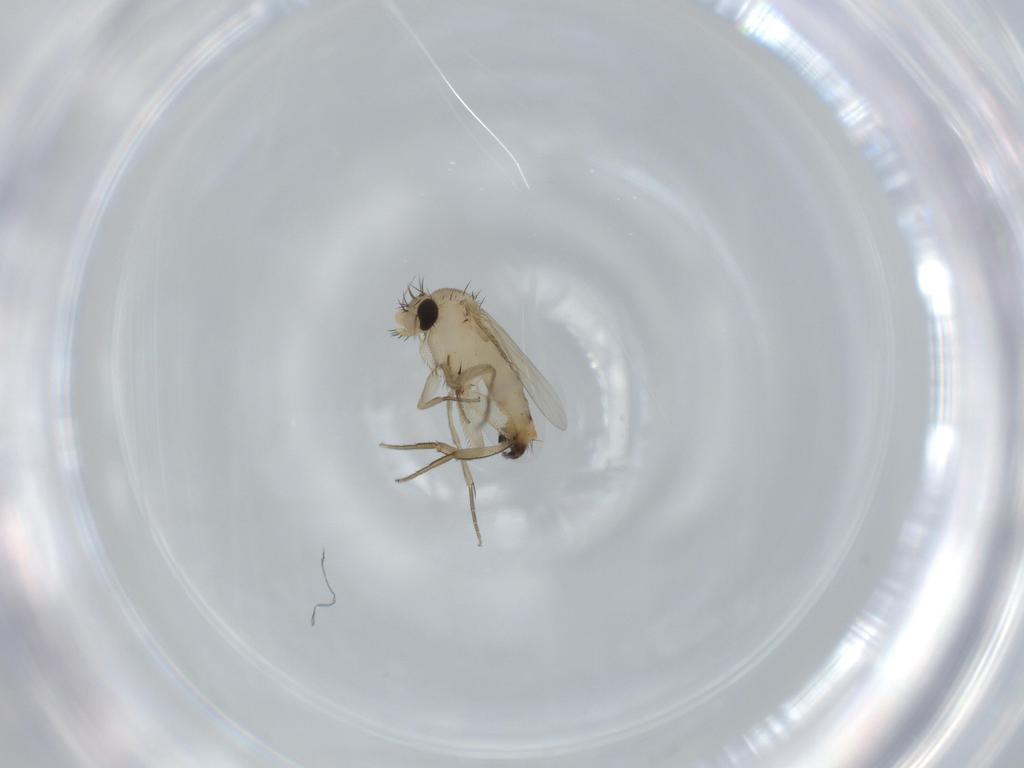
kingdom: Animalia
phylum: Arthropoda
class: Insecta
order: Diptera
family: Phoridae
